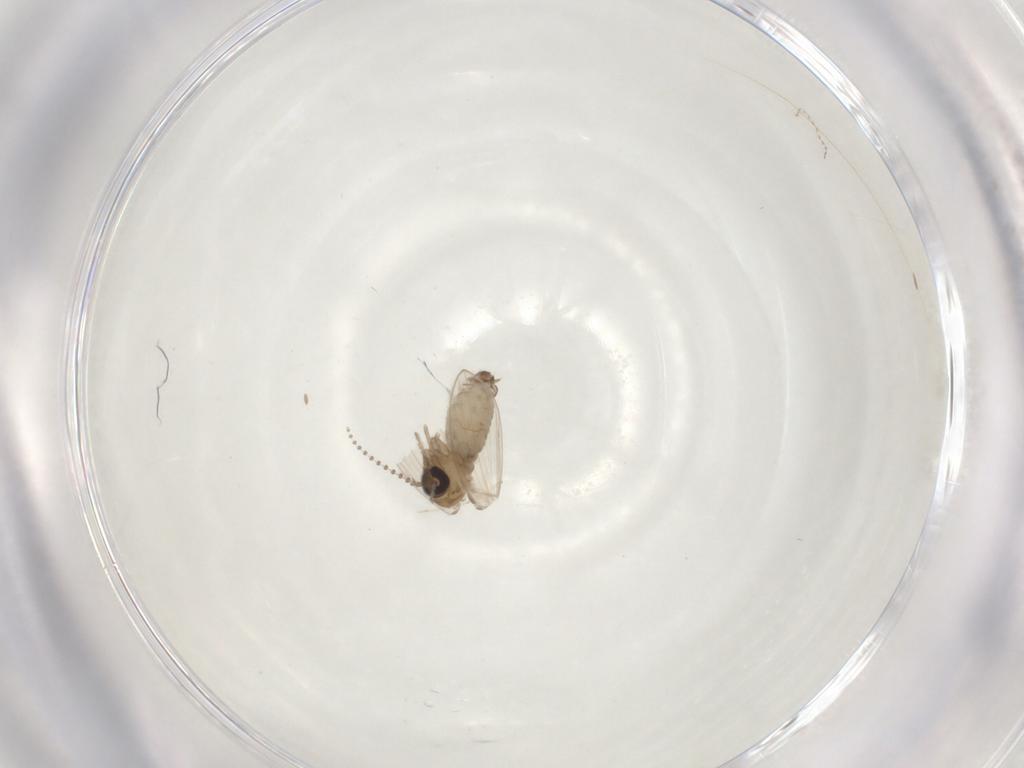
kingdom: Animalia
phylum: Arthropoda
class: Insecta
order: Diptera
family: Psychodidae
